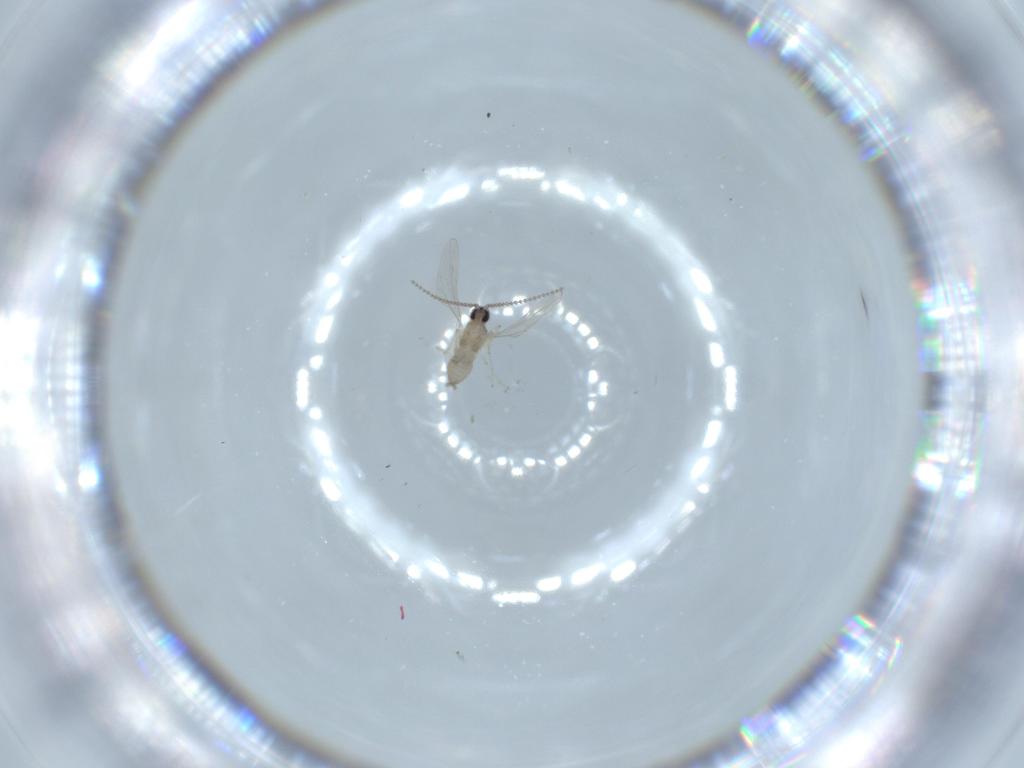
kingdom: Animalia
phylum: Arthropoda
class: Insecta
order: Diptera
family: Cecidomyiidae
